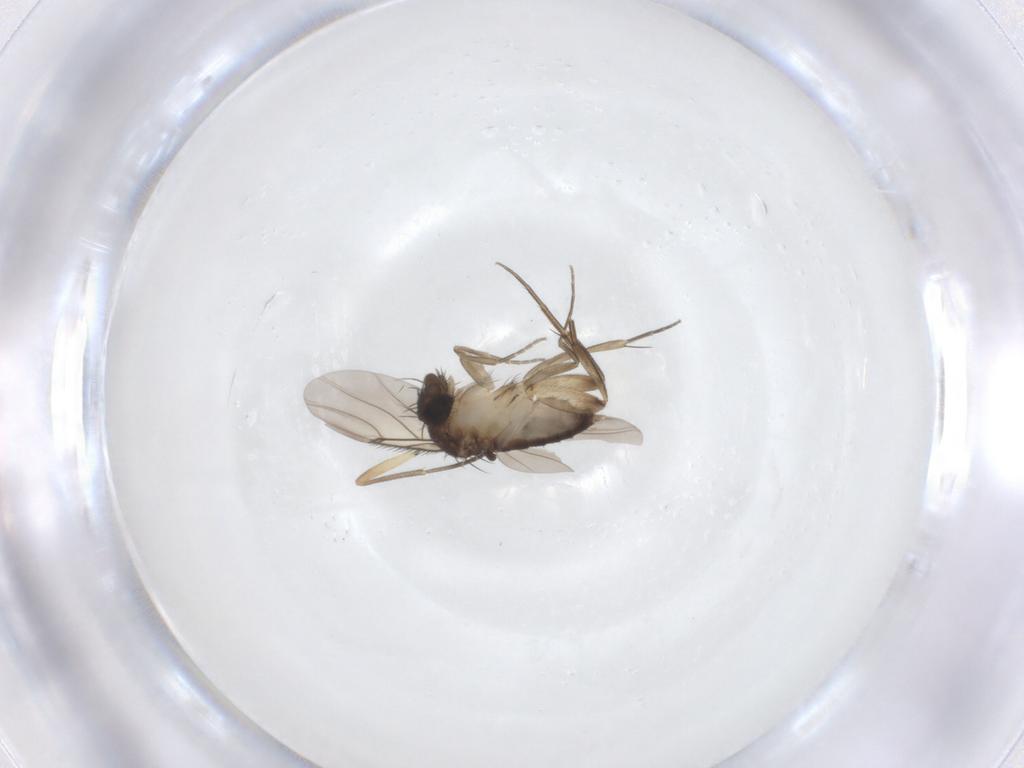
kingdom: Animalia
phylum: Arthropoda
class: Insecta
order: Diptera
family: Phoridae
